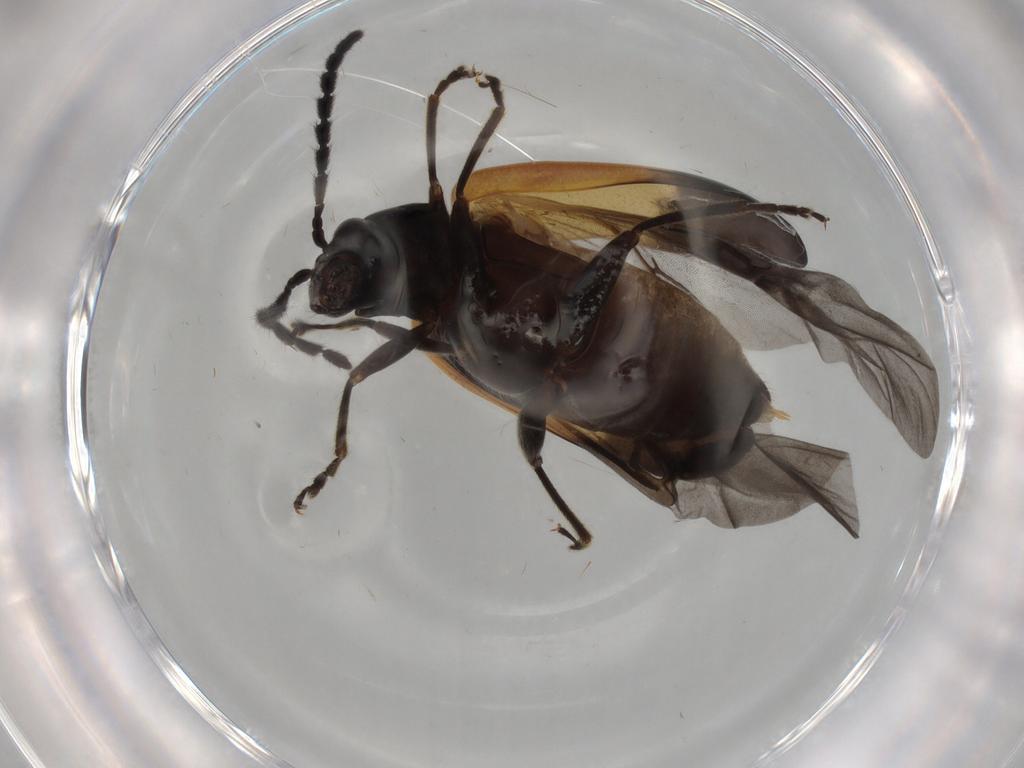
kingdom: Animalia
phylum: Arthropoda
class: Insecta
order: Coleoptera
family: Chrysomelidae
